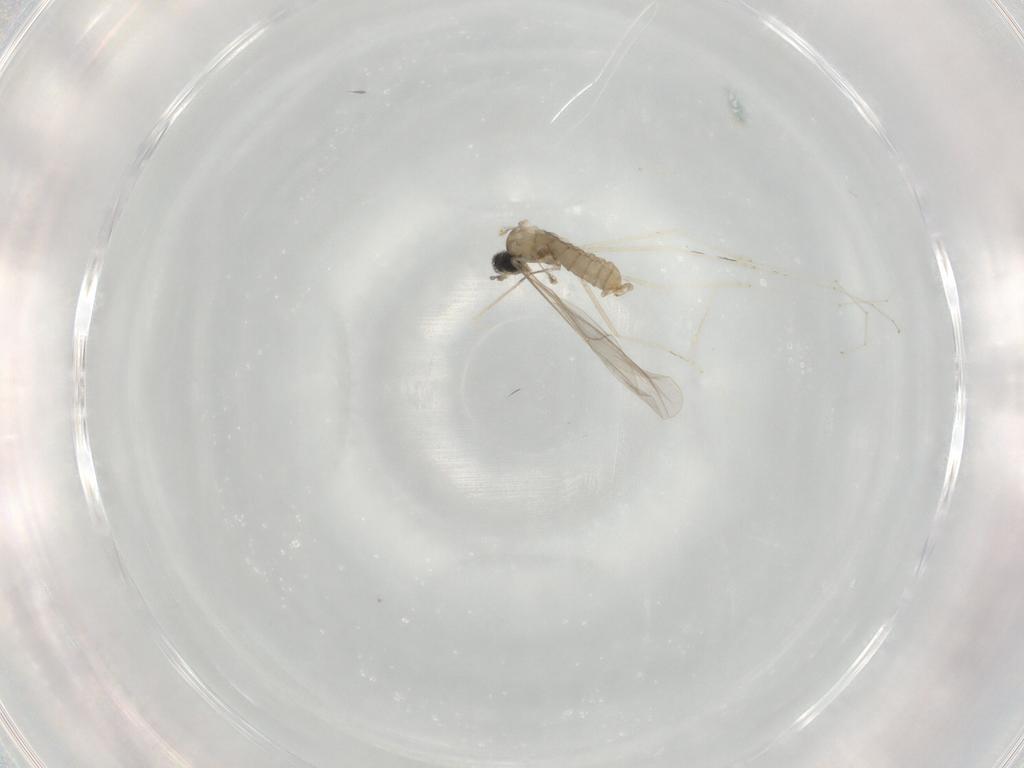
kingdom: Animalia
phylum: Arthropoda
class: Insecta
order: Diptera
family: Cecidomyiidae
